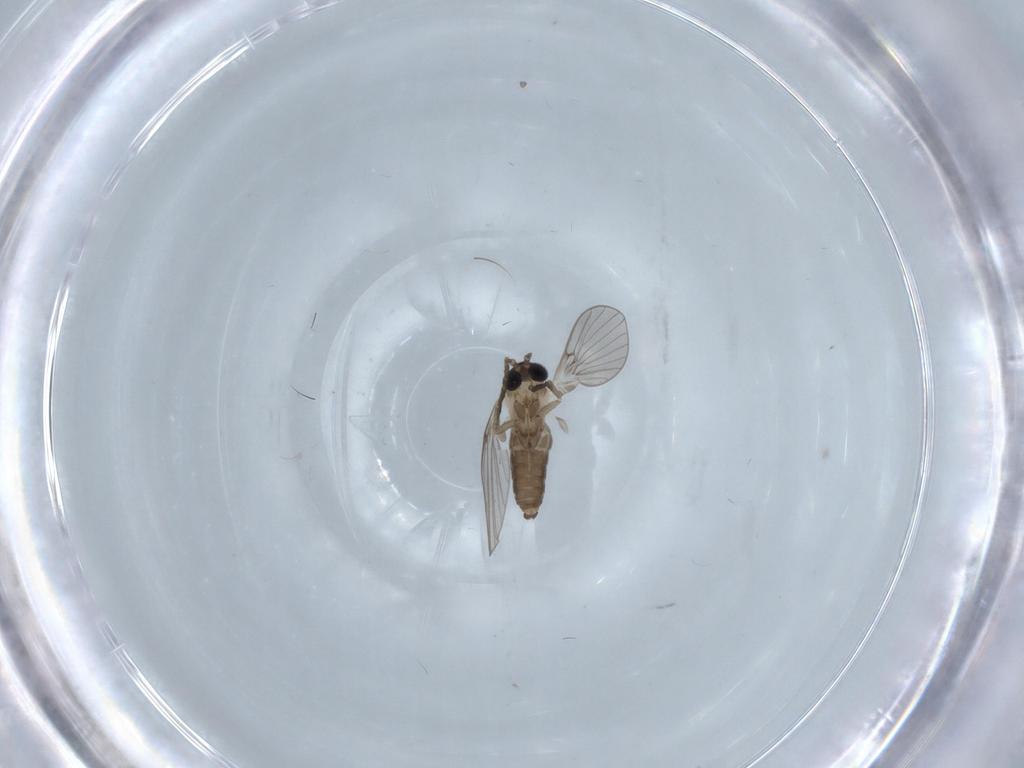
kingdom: Animalia
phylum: Arthropoda
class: Insecta
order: Diptera
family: Cecidomyiidae
